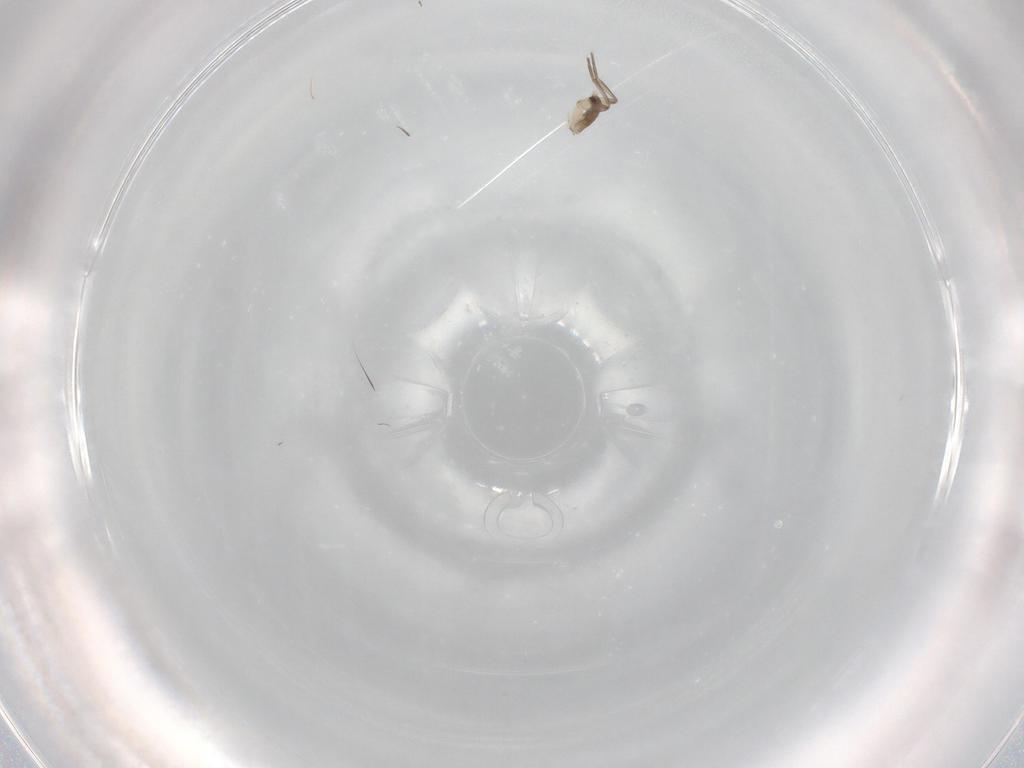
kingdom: Animalia
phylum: Arthropoda
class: Insecta
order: Diptera
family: Phoridae
